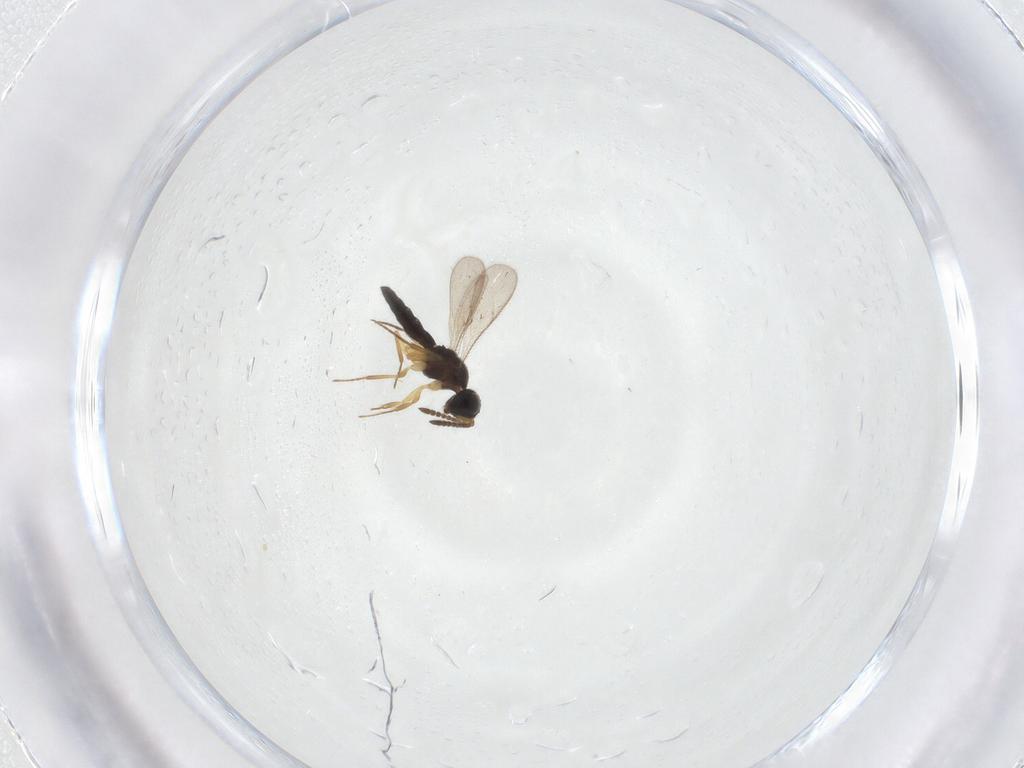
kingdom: Animalia
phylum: Arthropoda
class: Insecta
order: Hymenoptera
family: Scelionidae
